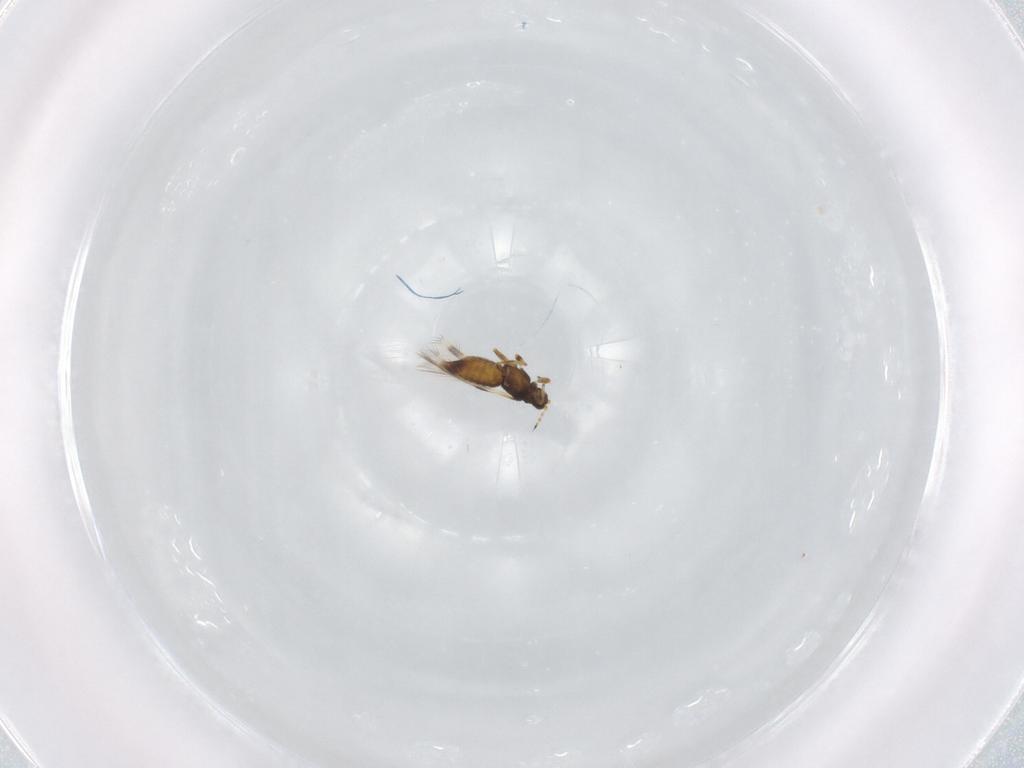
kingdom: Animalia
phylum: Arthropoda
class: Insecta
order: Thysanoptera
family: Thripidae
